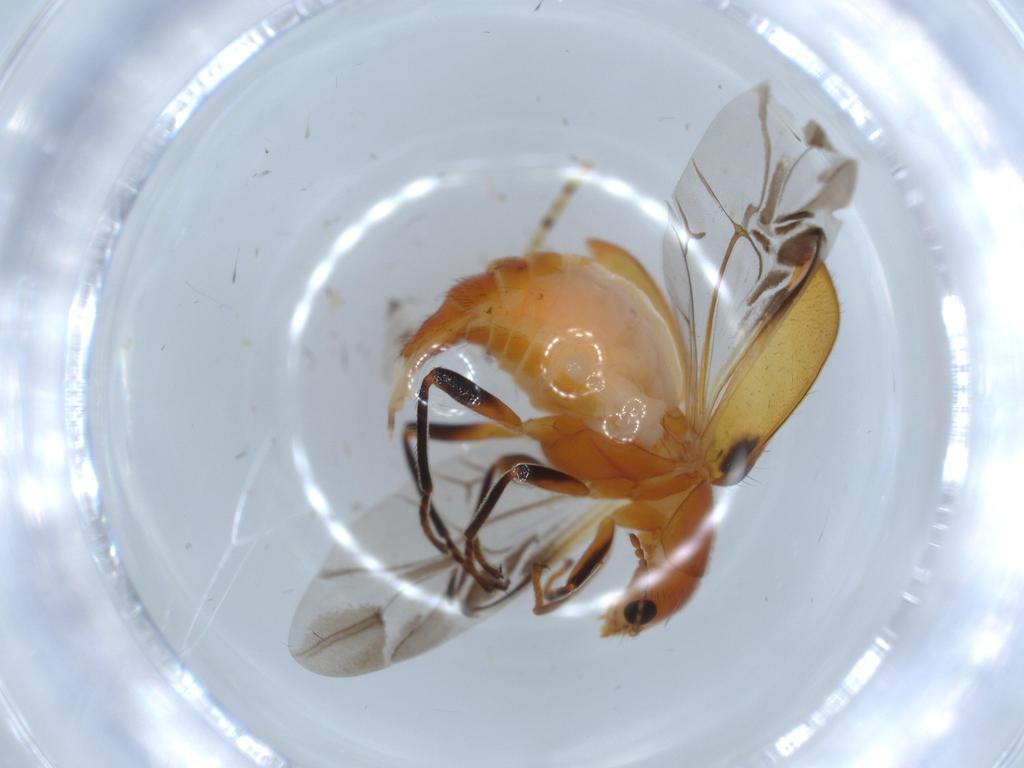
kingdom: Animalia
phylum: Arthropoda
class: Insecta
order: Coleoptera
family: Melyridae
